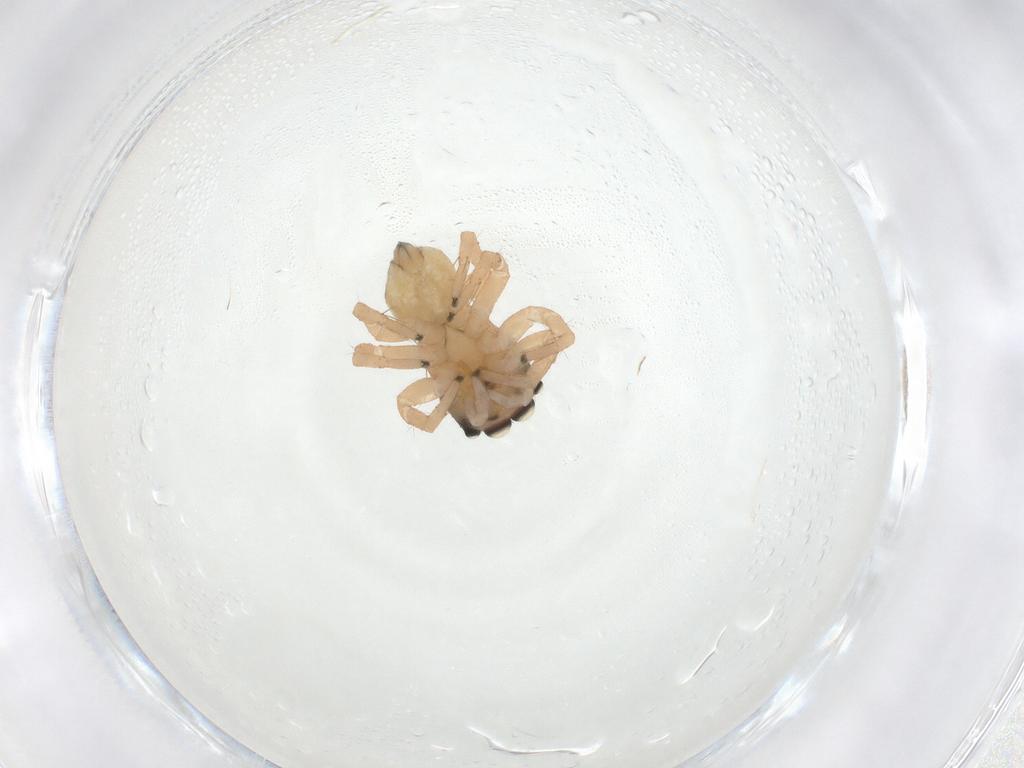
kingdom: Animalia
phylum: Arthropoda
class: Arachnida
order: Araneae
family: Salticidae
